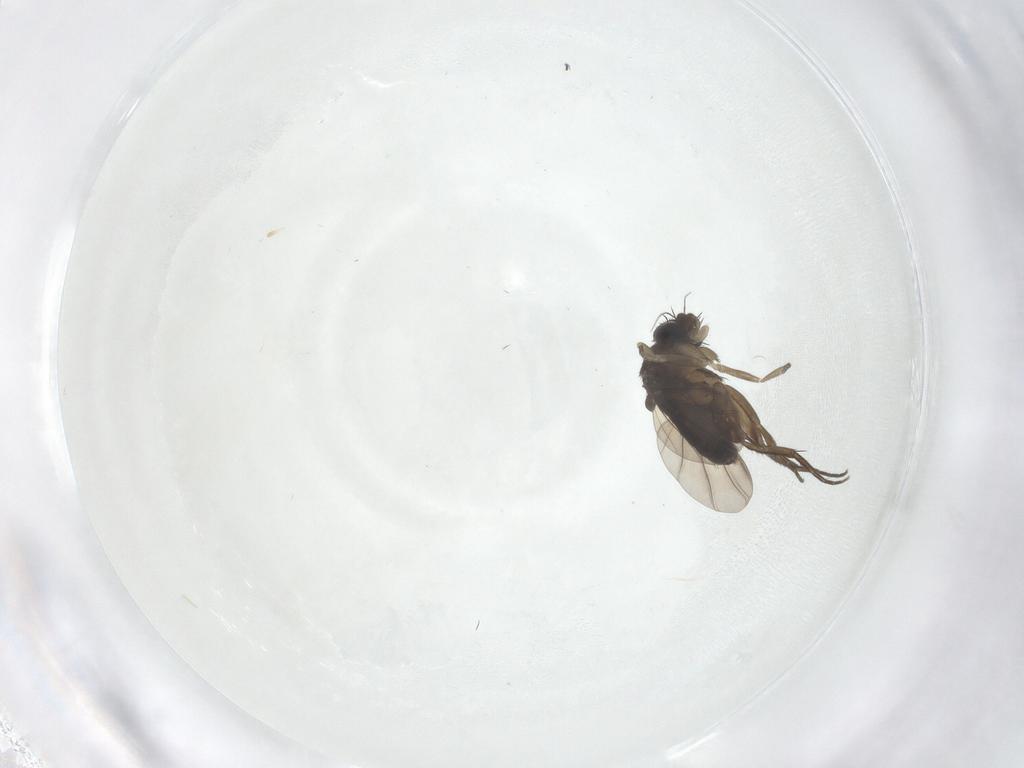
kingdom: Animalia
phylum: Arthropoda
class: Insecta
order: Diptera
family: Phoridae
